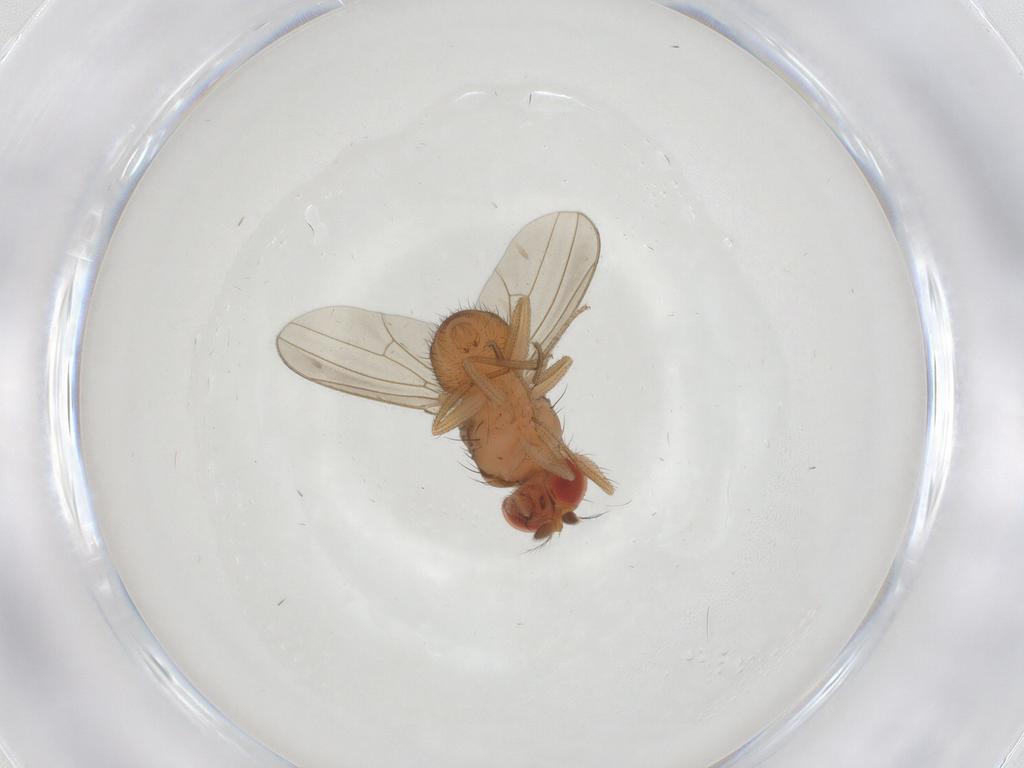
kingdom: Animalia
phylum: Arthropoda
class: Insecta
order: Diptera
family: Drosophilidae
